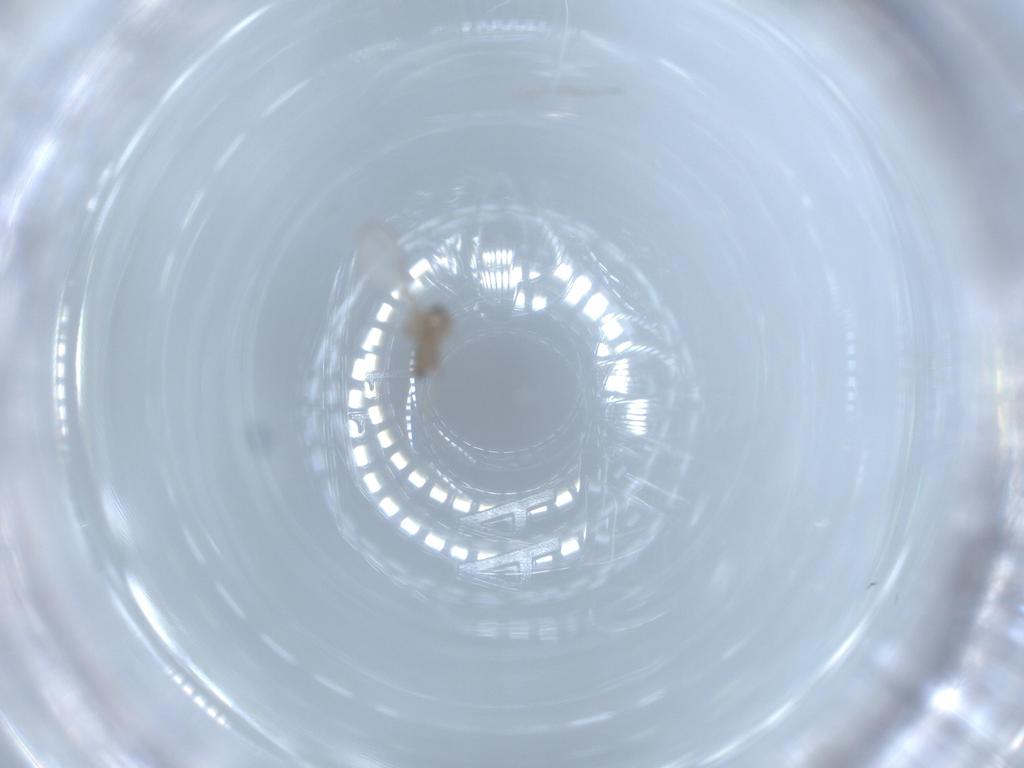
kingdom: Animalia
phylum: Arthropoda
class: Insecta
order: Diptera
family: Cecidomyiidae
